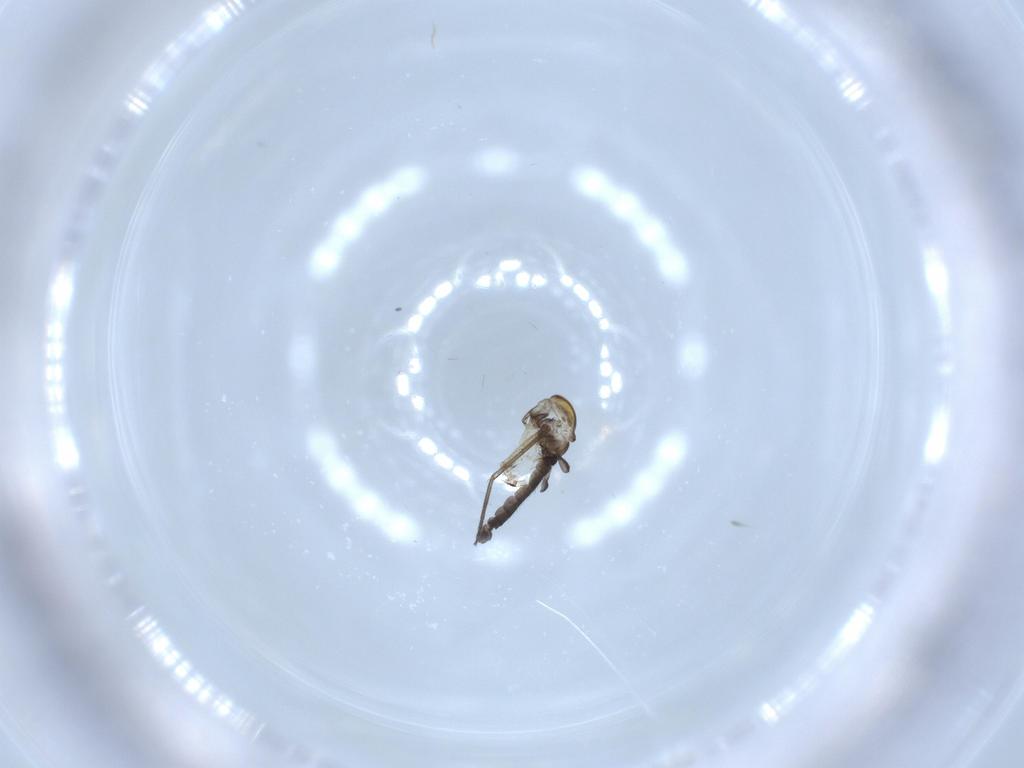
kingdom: Animalia
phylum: Arthropoda
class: Insecta
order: Diptera
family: Sciaridae
